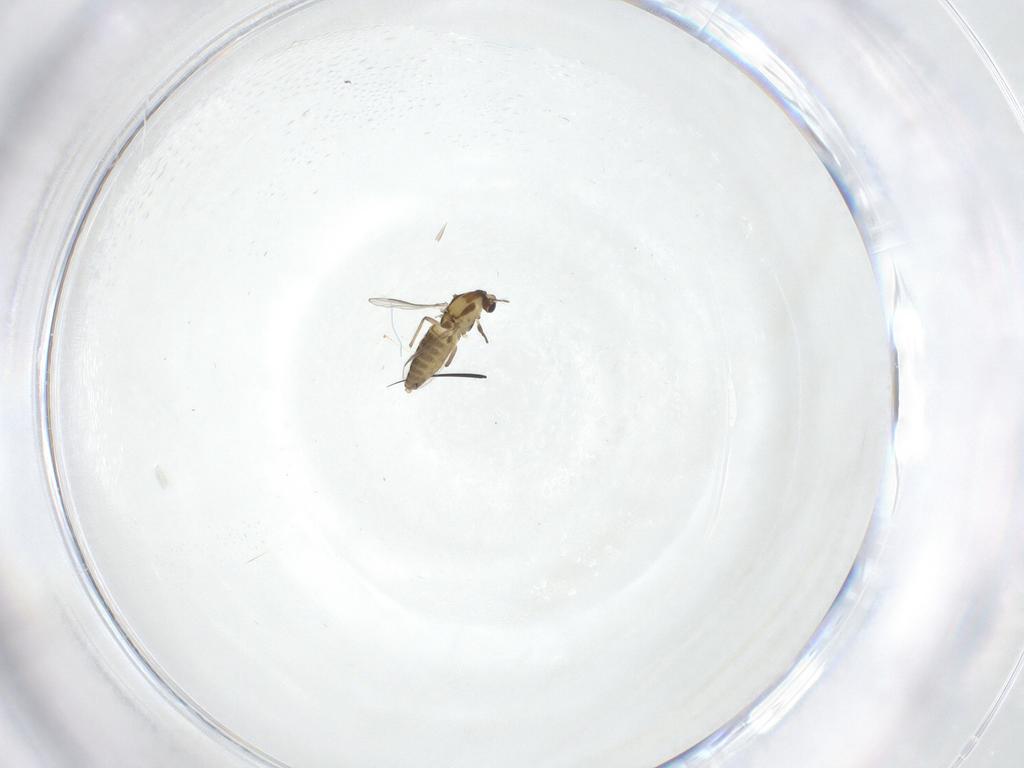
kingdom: Animalia
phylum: Arthropoda
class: Insecta
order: Diptera
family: Chironomidae
